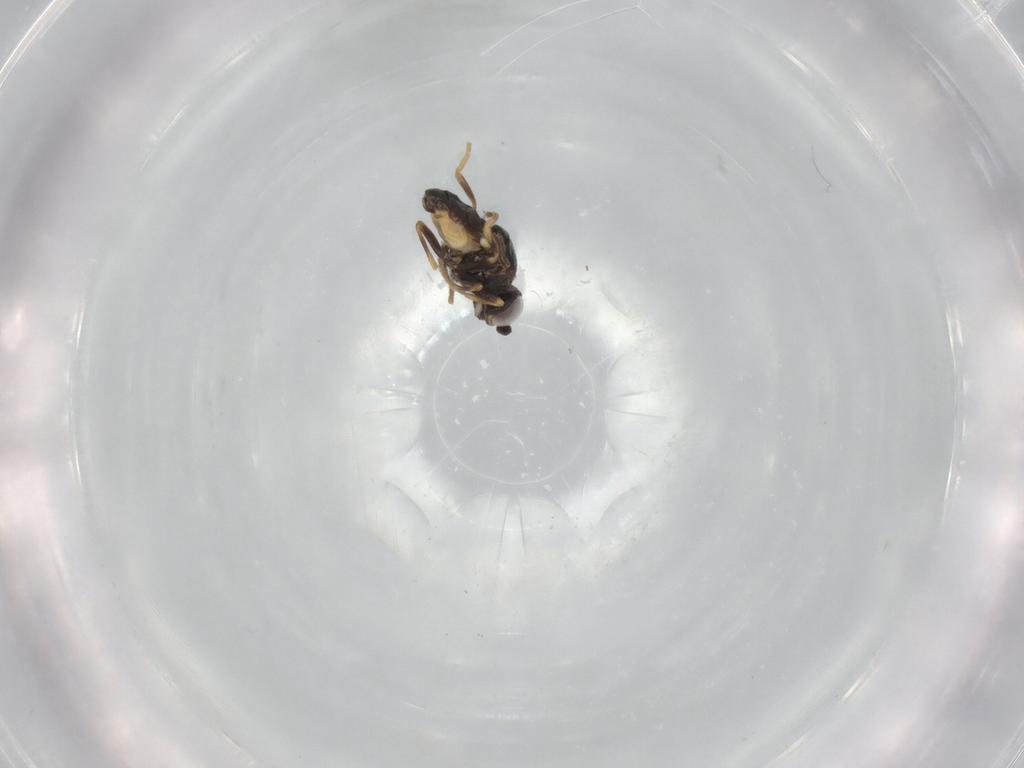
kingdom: Animalia
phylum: Arthropoda
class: Insecta
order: Diptera
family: Chloropidae
